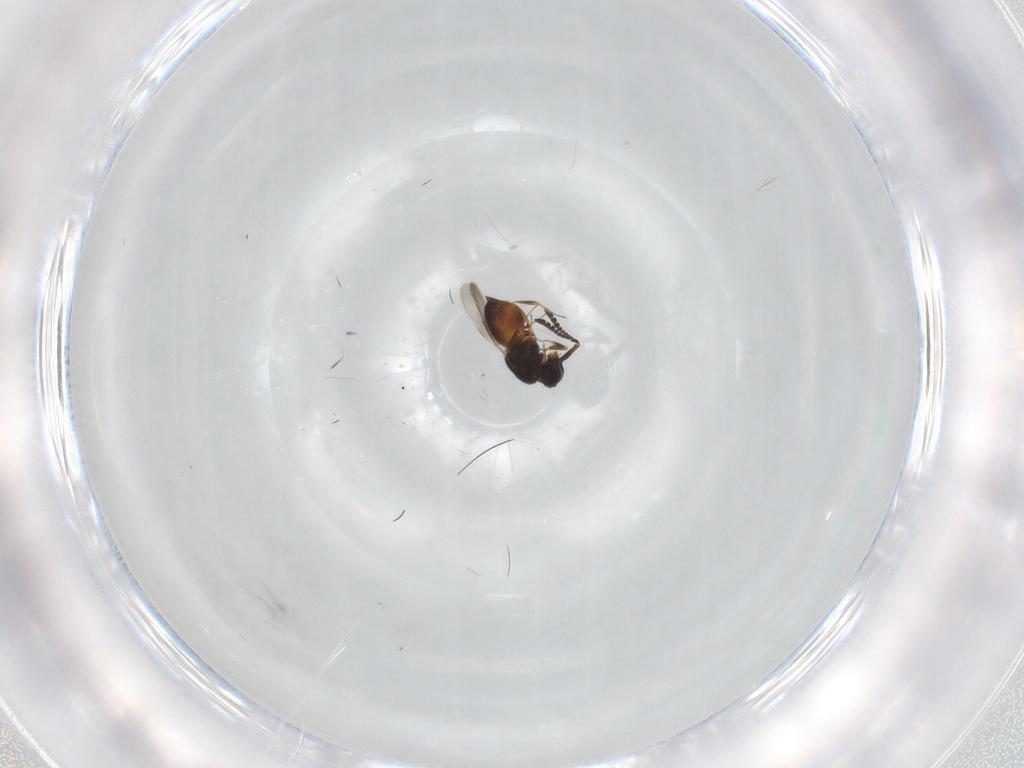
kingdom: Animalia
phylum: Arthropoda
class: Insecta
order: Hymenoptera
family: Ceraphronidae
